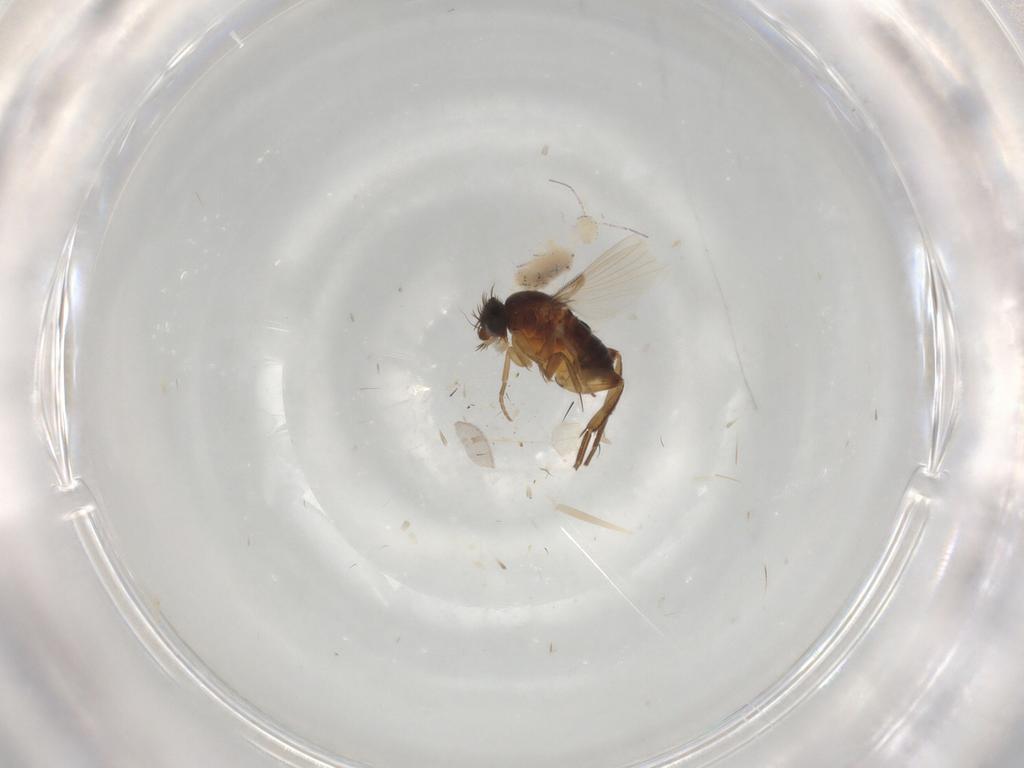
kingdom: Animalia
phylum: Arthropoda
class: Insecta
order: Diptera
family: Phoridae
